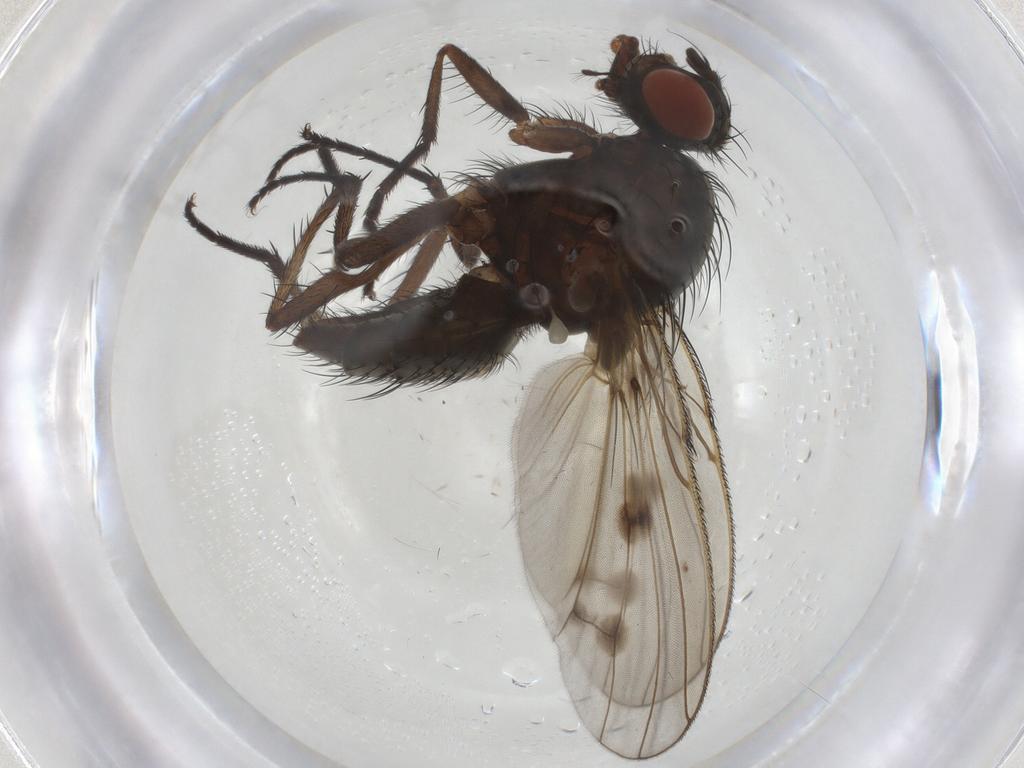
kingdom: Animalia
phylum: Arthropoda
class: Insecta
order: Diptera
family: Anthomyiidae
